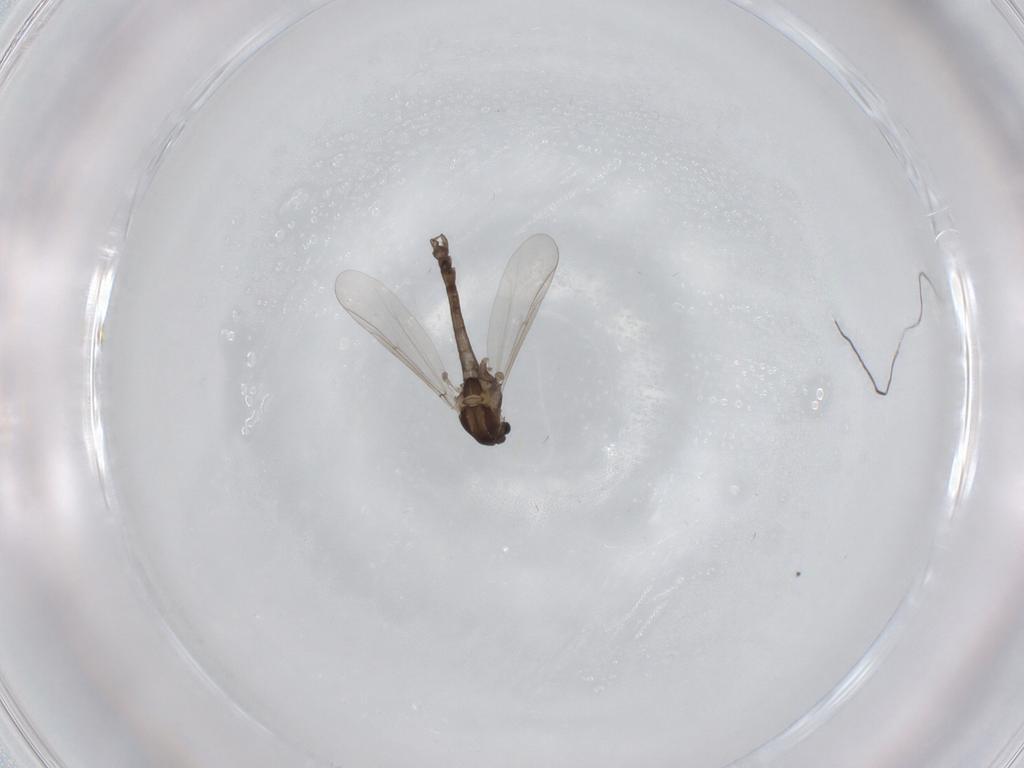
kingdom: Animalia
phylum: Arthropoda
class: Insecta
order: Diptera
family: Chironomidae
